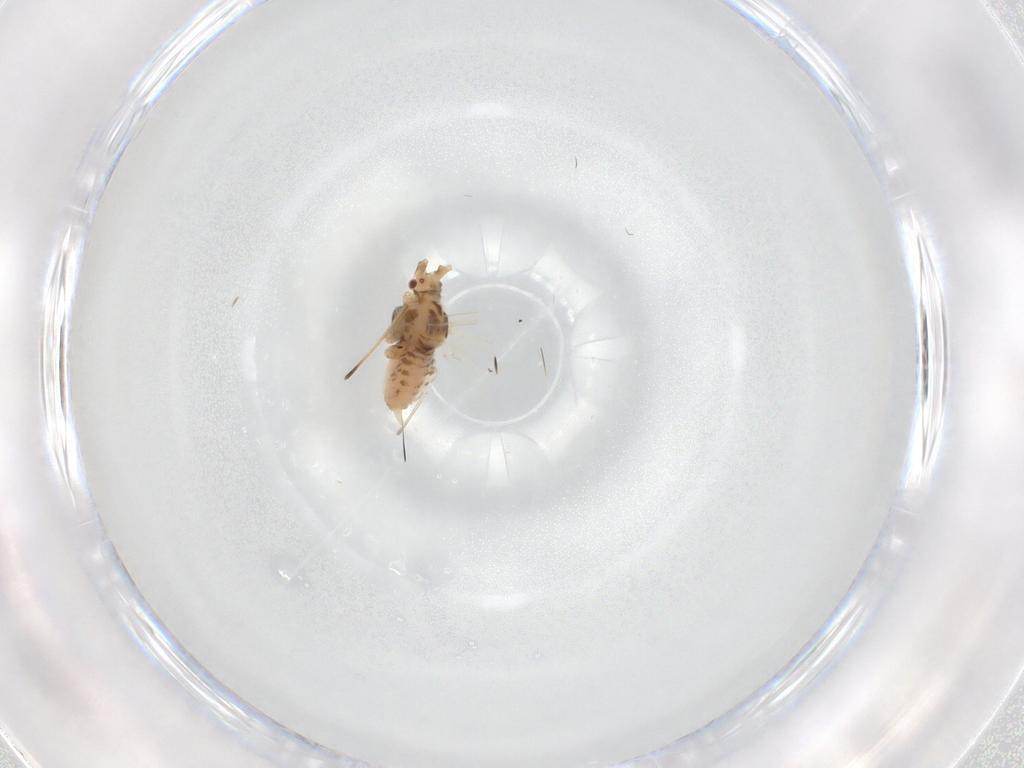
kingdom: Animalia
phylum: Arthropoda
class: Insecta
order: Hemiptera
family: Aphididae
